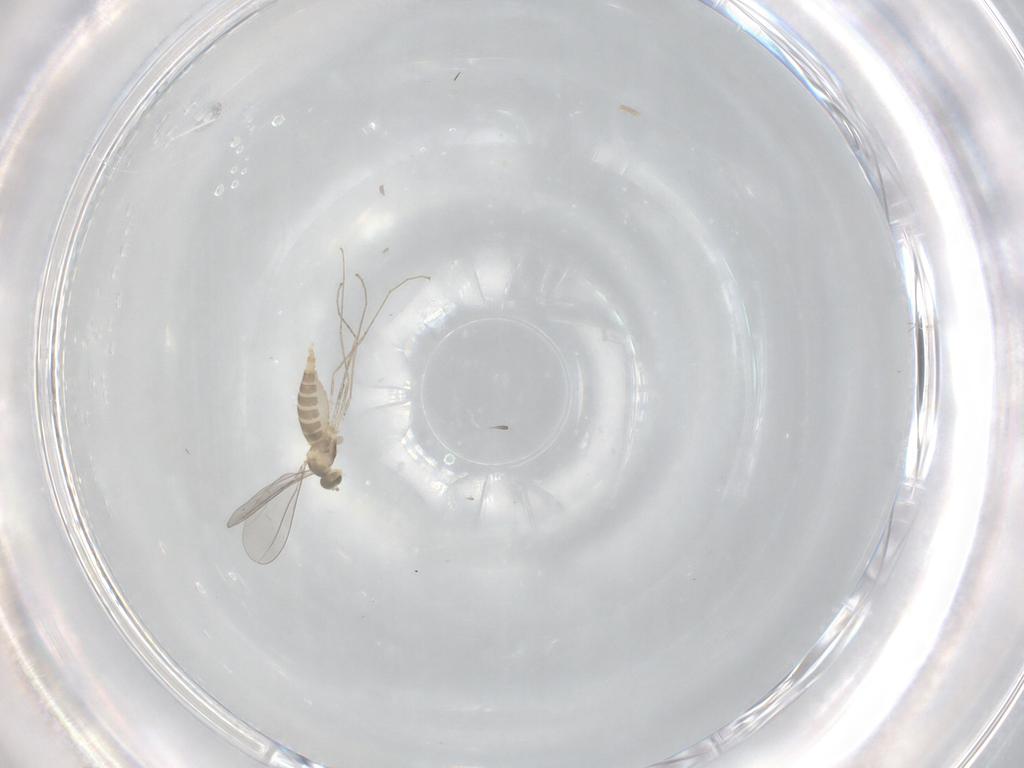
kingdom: Animalia
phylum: Arthropoda
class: Insecta
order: Diptera
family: Cecidomyiidae
